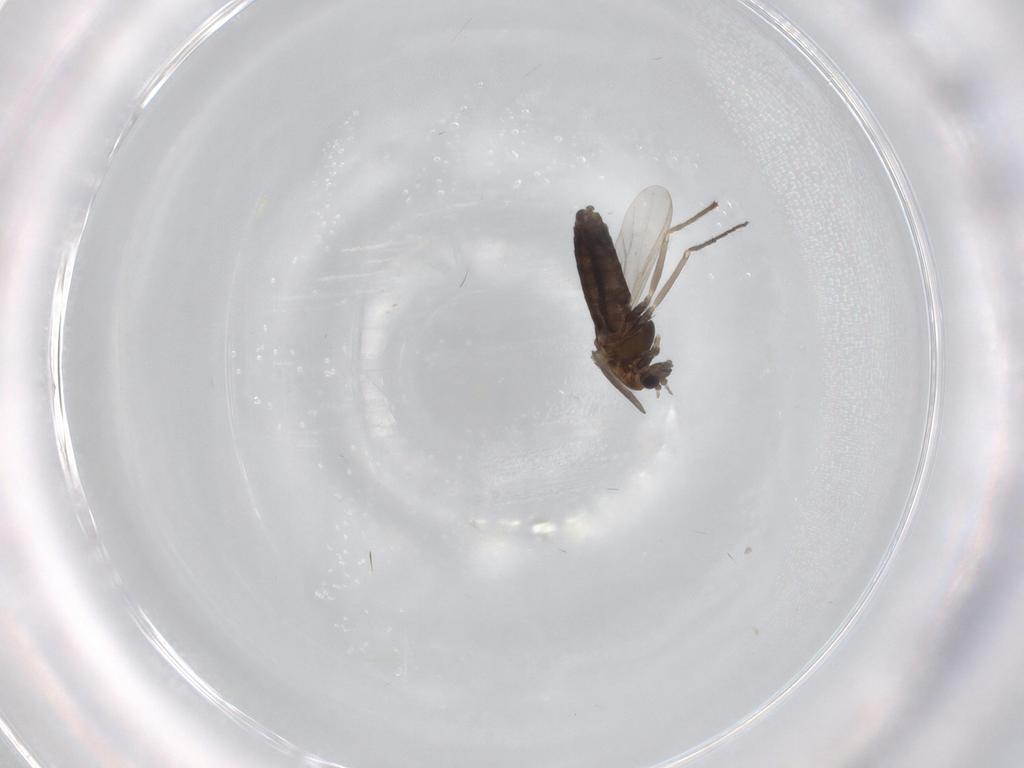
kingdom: Animalia
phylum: Arthropoda
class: Insecta
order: Diptera
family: Chironomidae
